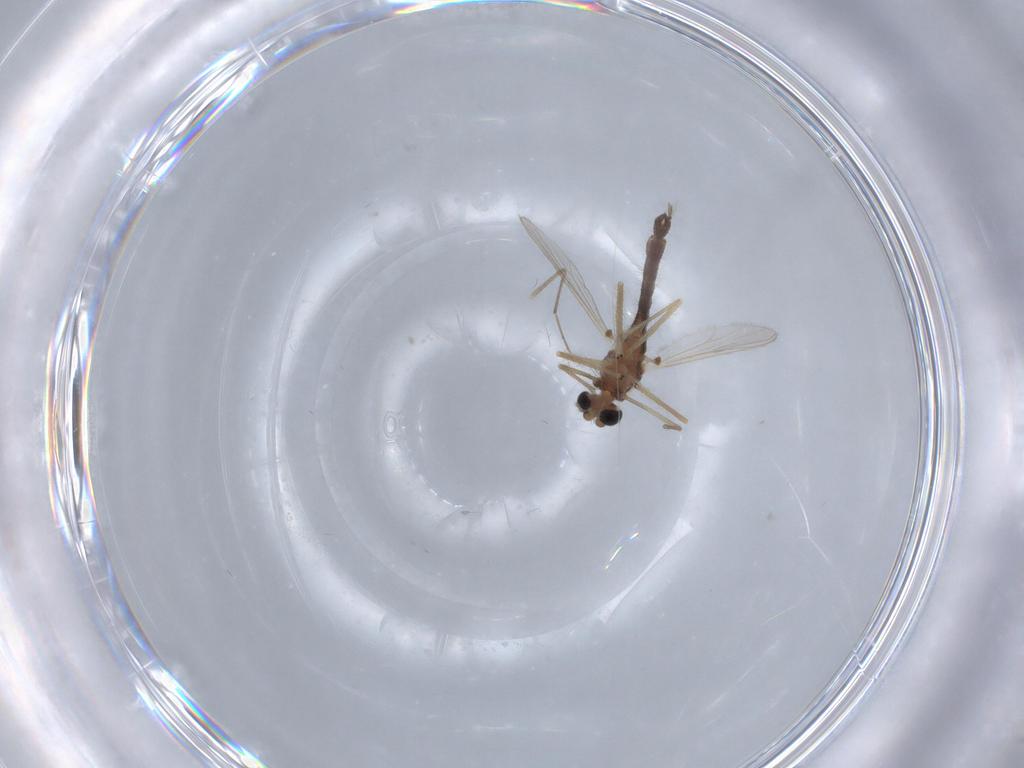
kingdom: Animalia
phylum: Arthropoda
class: Insecta
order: Diptera
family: Chironomidae
